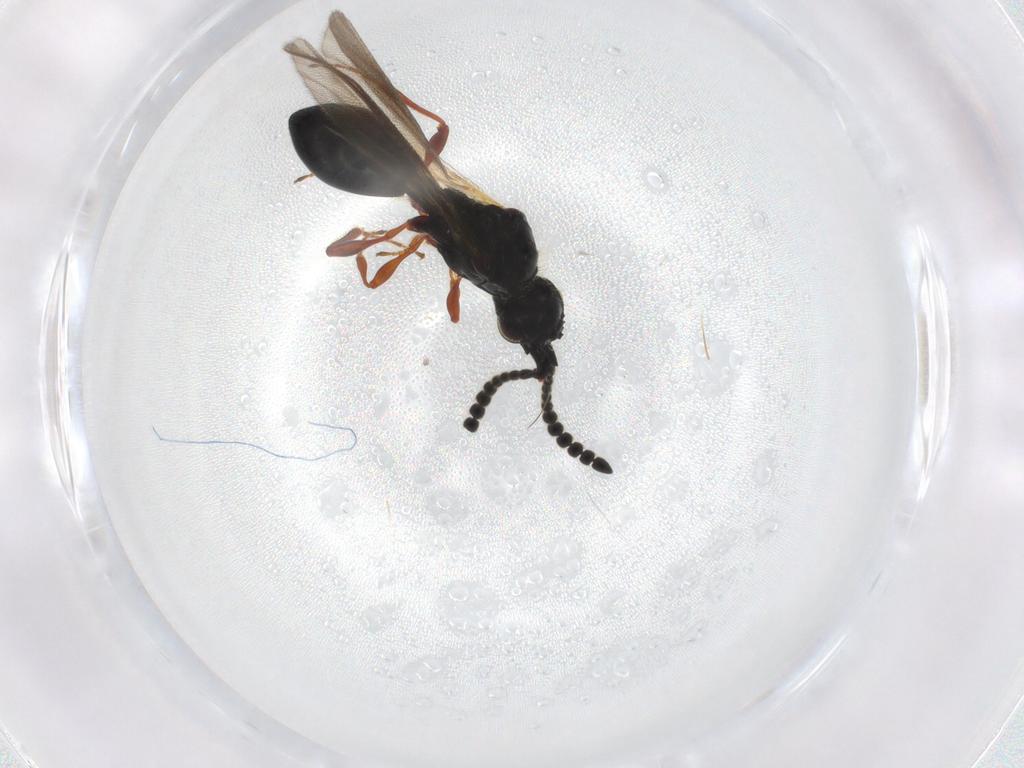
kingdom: Animalia
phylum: Arthropoda
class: Insecta
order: Hymenoptera
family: Diapriidae
